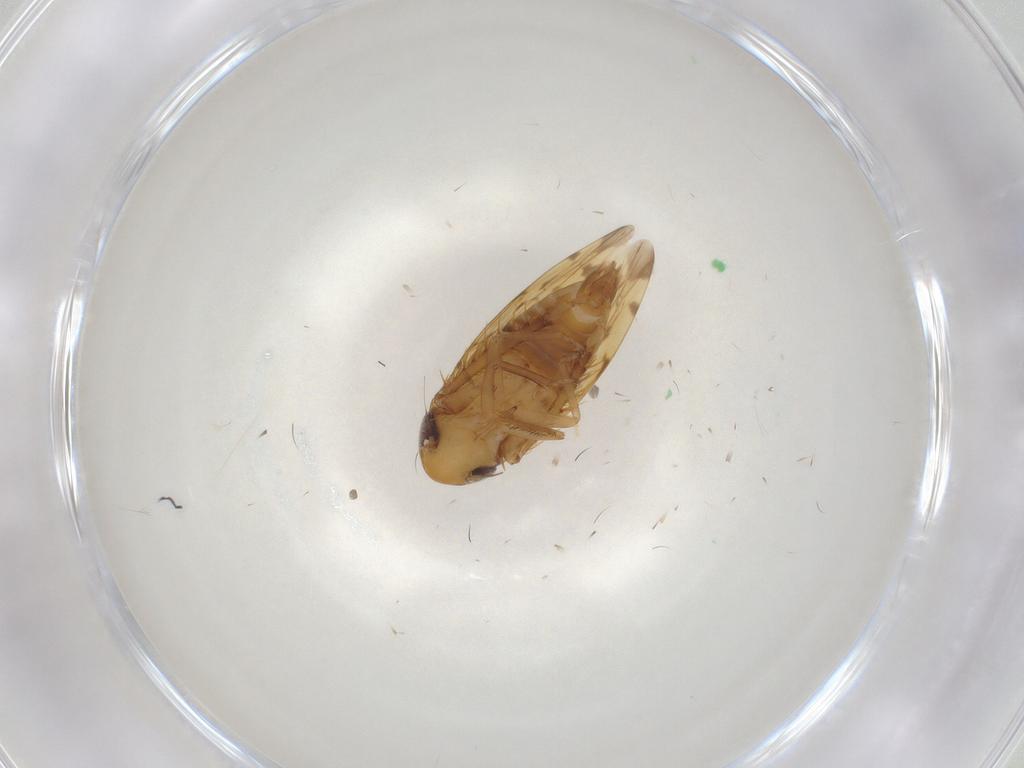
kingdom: Animalia
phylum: Arthropoda
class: Insecta
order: Hemiptera
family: Cicadellidae
